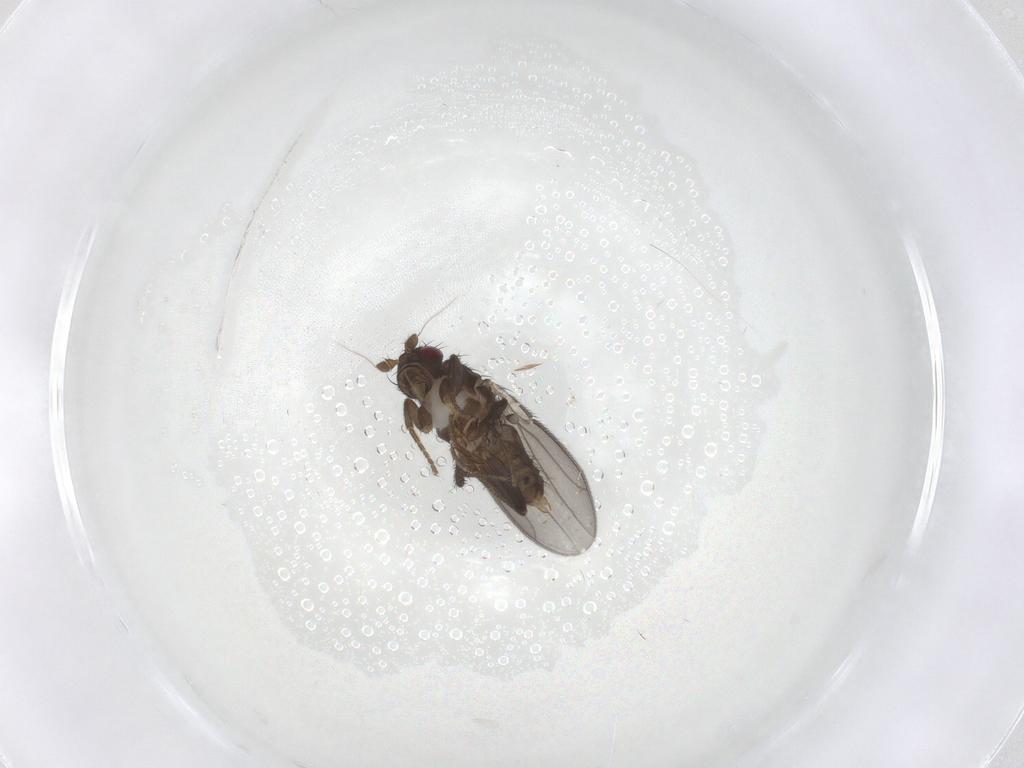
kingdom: Animalia
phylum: Arthropoda
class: Insecta
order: Diptera
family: Sphaeroceridae
